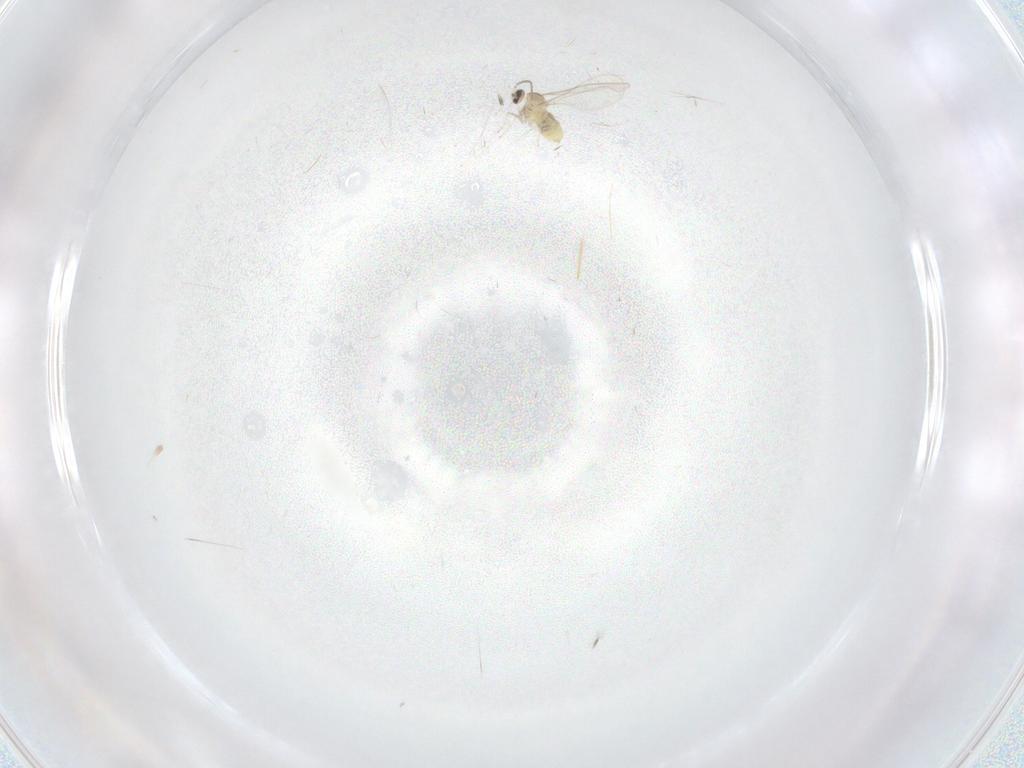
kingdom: Animalia
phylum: Arthropoda
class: Insecta
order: Diptera
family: Cecidomyiidae
